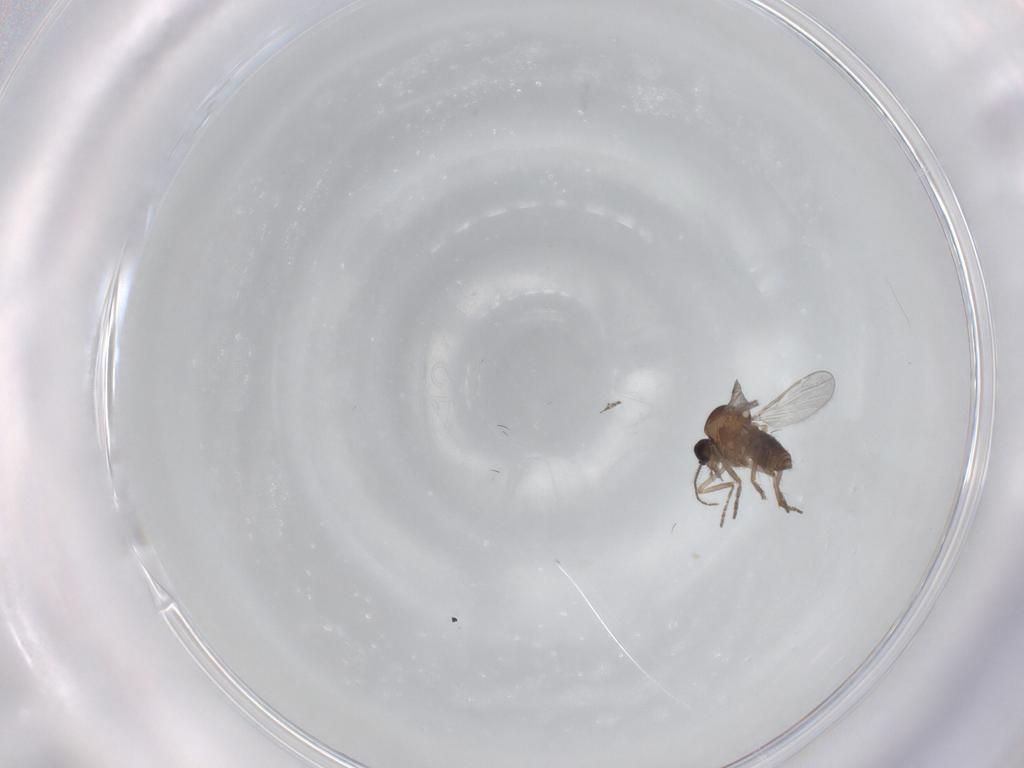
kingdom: Animalia
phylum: Arthropoda
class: Insecta
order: Diptera
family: Ceratopogonidae
